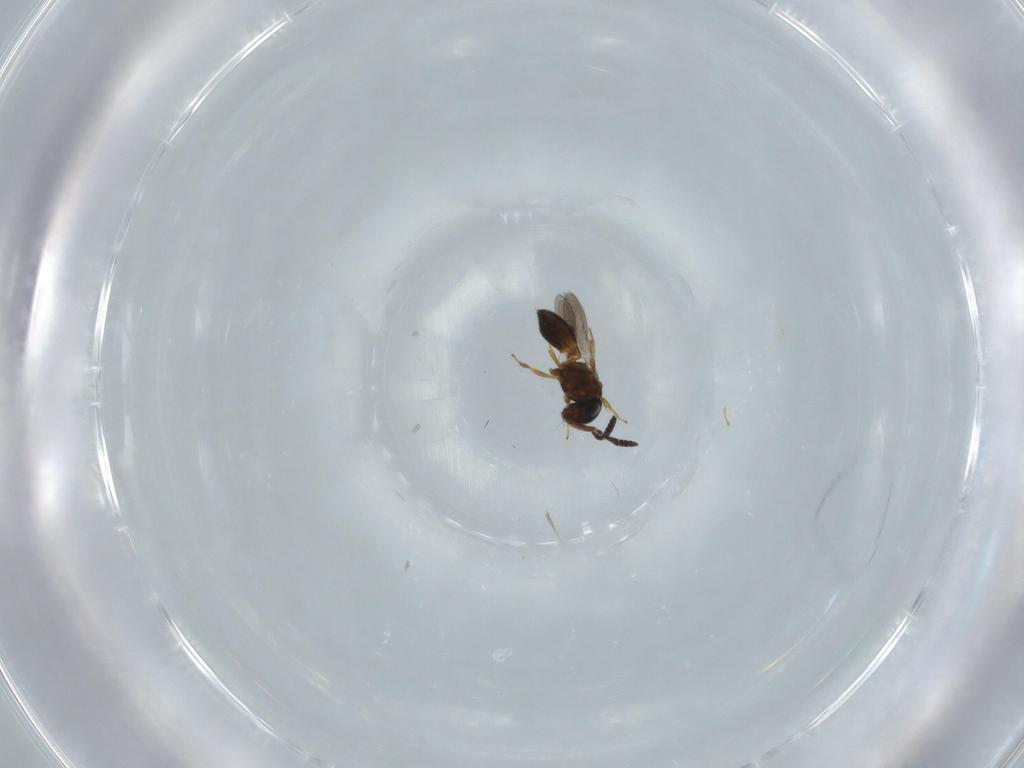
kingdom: Animalia
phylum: Arthropoda
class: Insecta
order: Hymenoptera
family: Scelionidae
